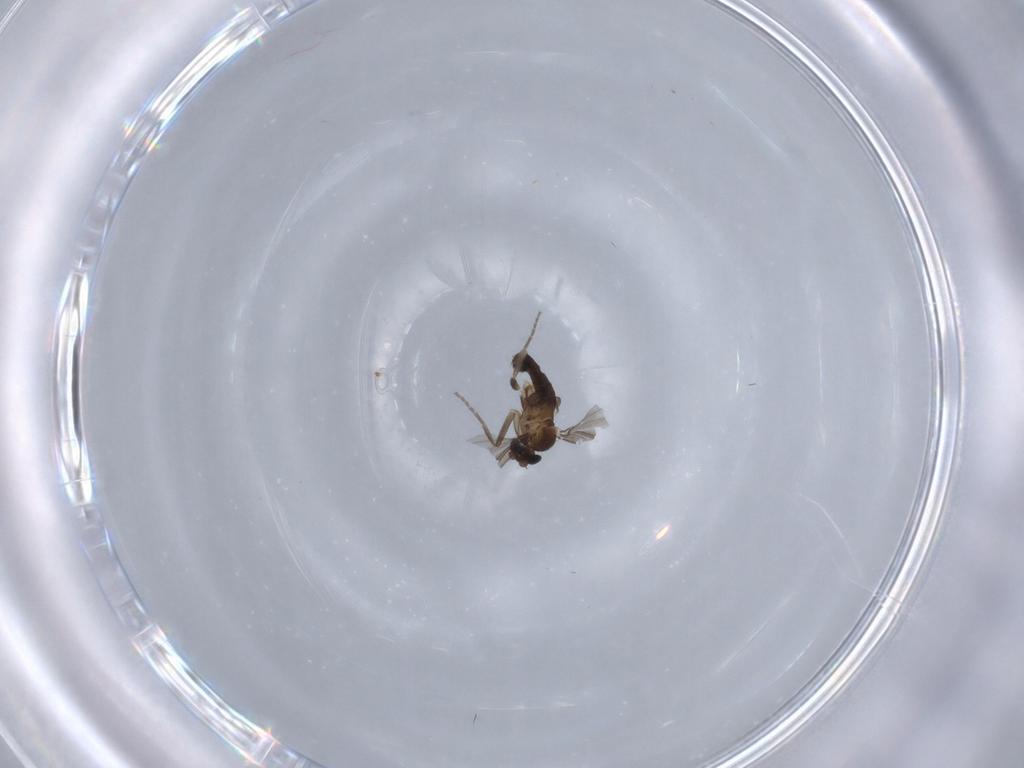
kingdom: Animalia
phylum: Arthropoda
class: Insecta
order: Diptera
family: Phoridae
